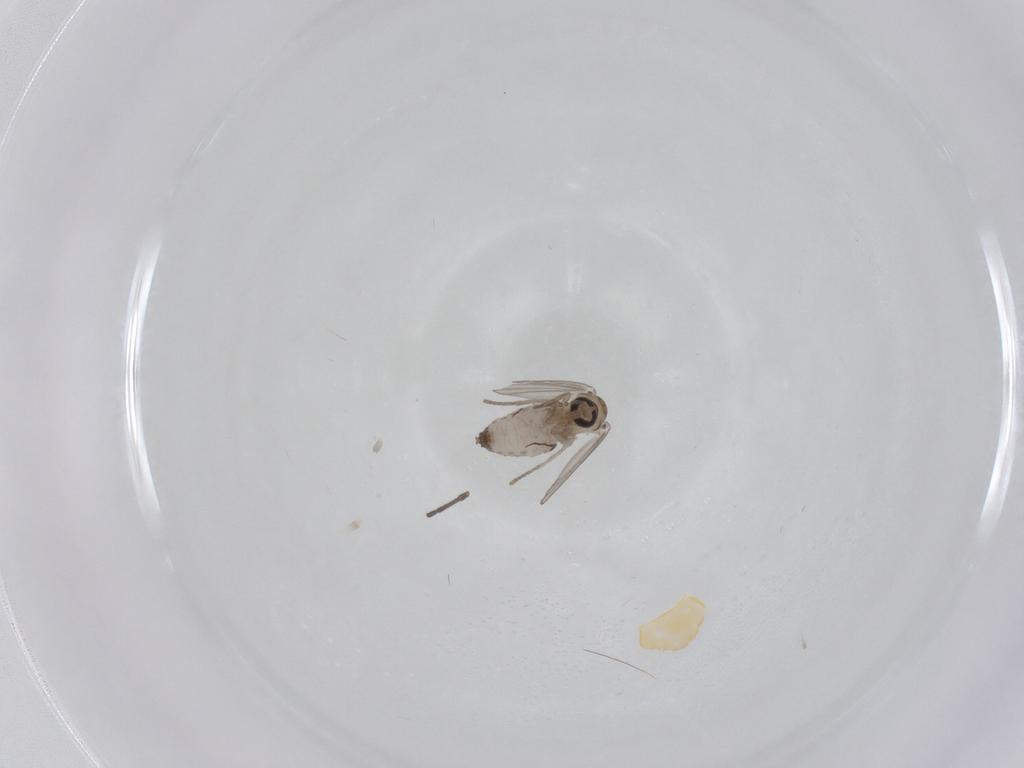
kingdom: Animalia
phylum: Arthropoda
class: Insecta
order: Diptera
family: Psychodidae
